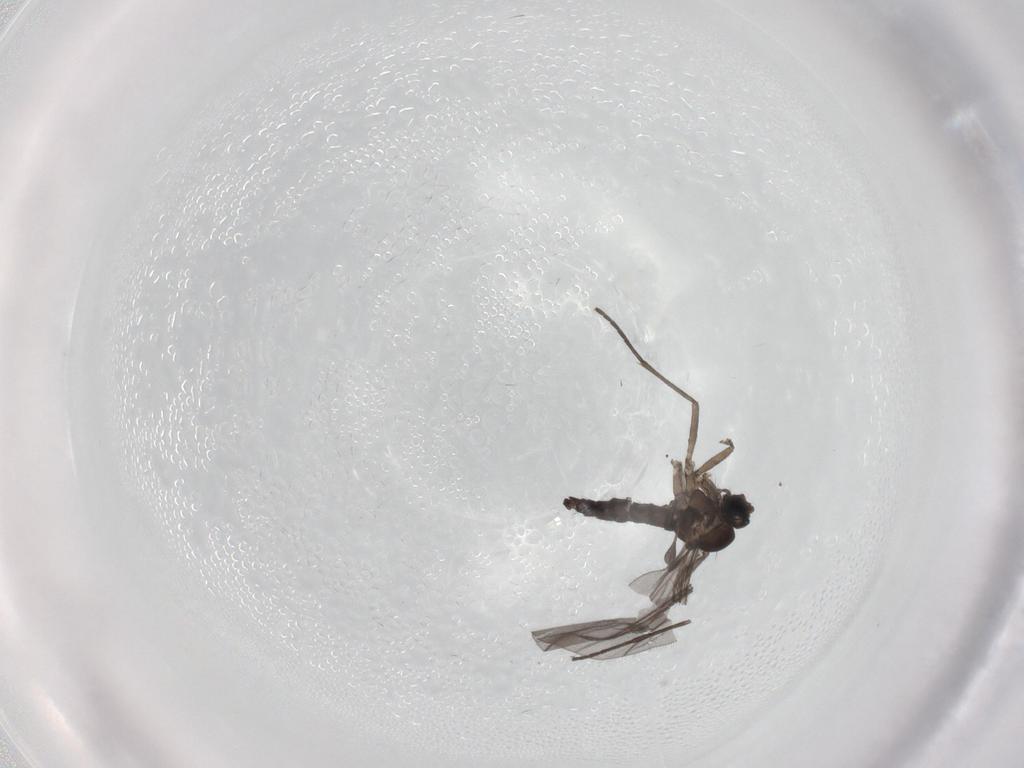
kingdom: Animalia
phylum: Arthropoda
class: Insecta
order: Diptera
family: Sciaridae
